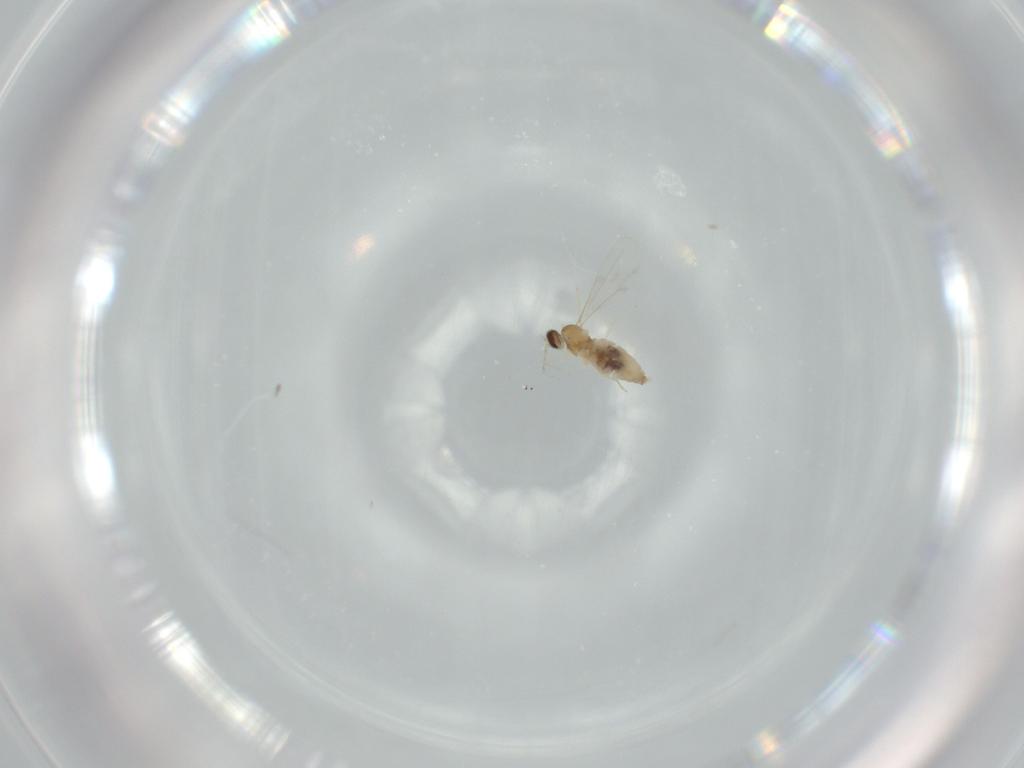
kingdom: Animalia
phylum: Arthropoda
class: Insecta
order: Diptera
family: Cecidomyiidae
